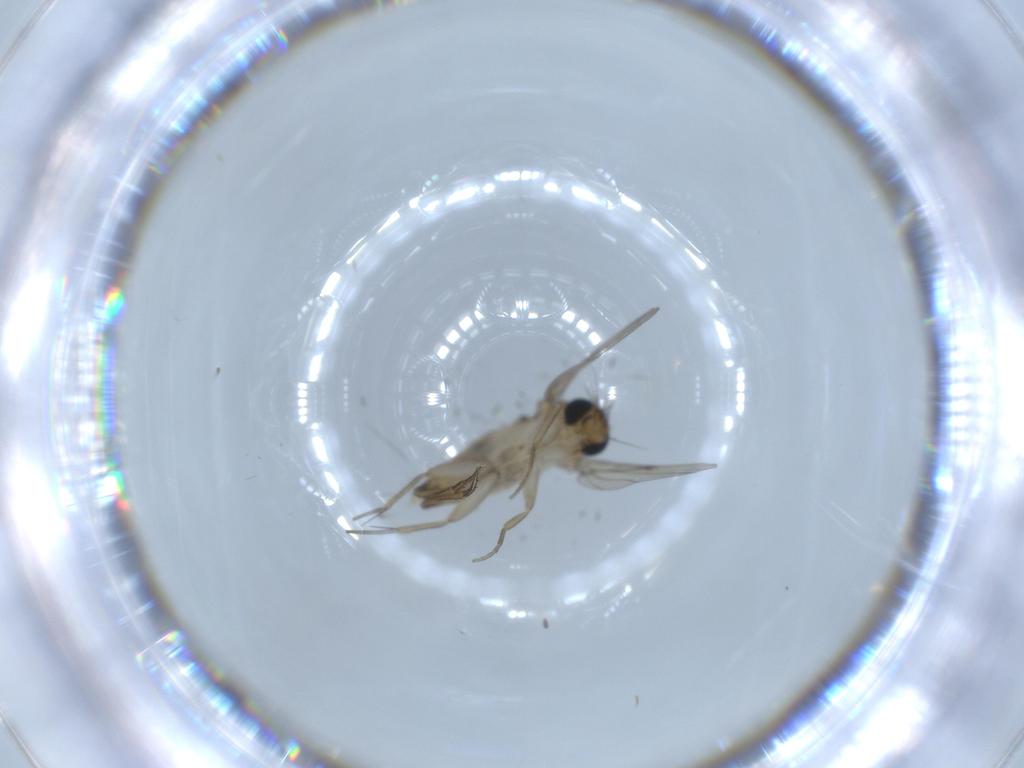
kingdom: Animalia
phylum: Arthropoda
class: Insecta
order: Diptera
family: Phoridae
